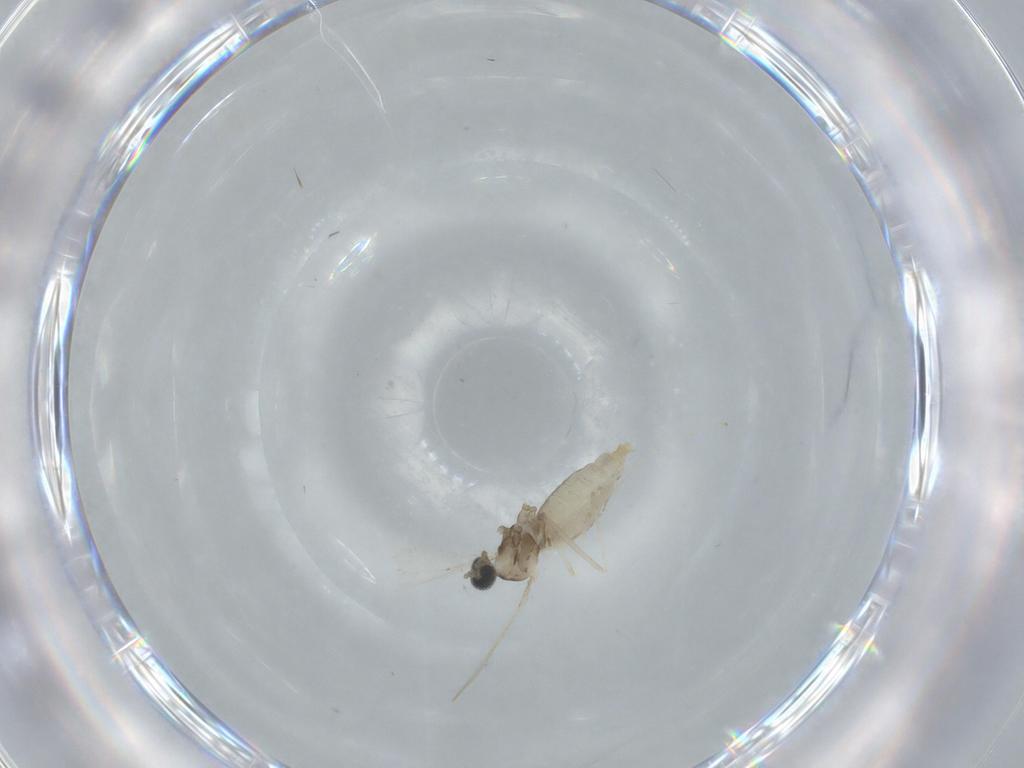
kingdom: Animalia
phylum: Arthropoda
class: Insecta
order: Diptera
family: Cecidomyiidae
